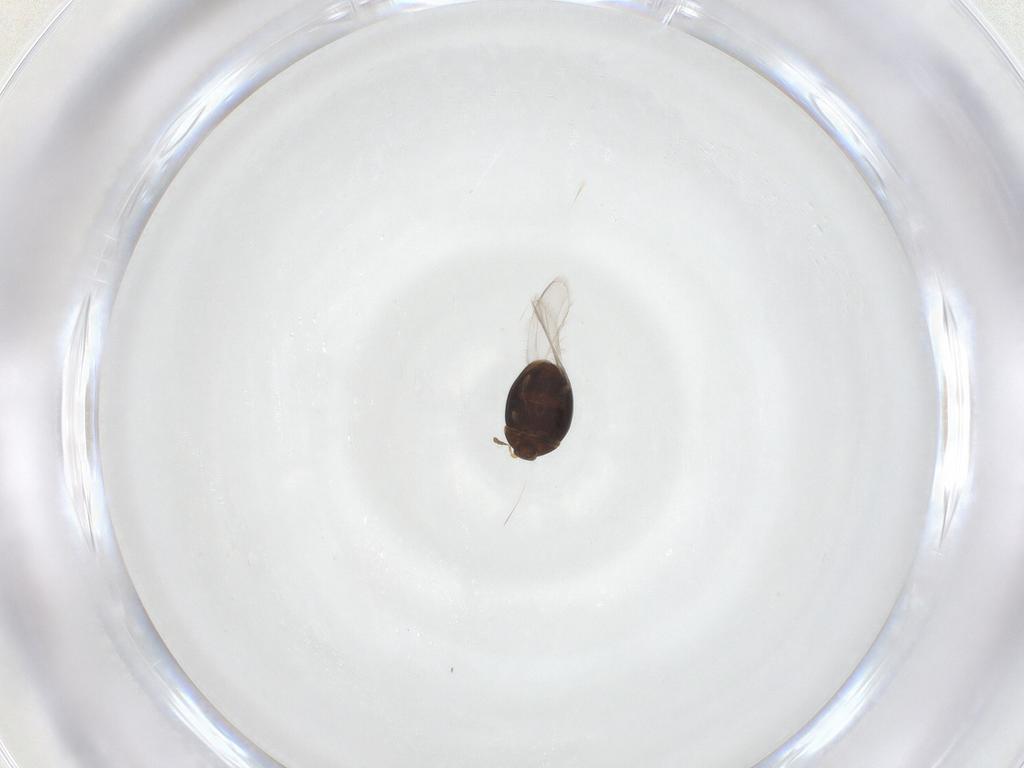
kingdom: Animalia
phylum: Arthropoda
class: Insecta
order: Coleoptera
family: Corylophidae
